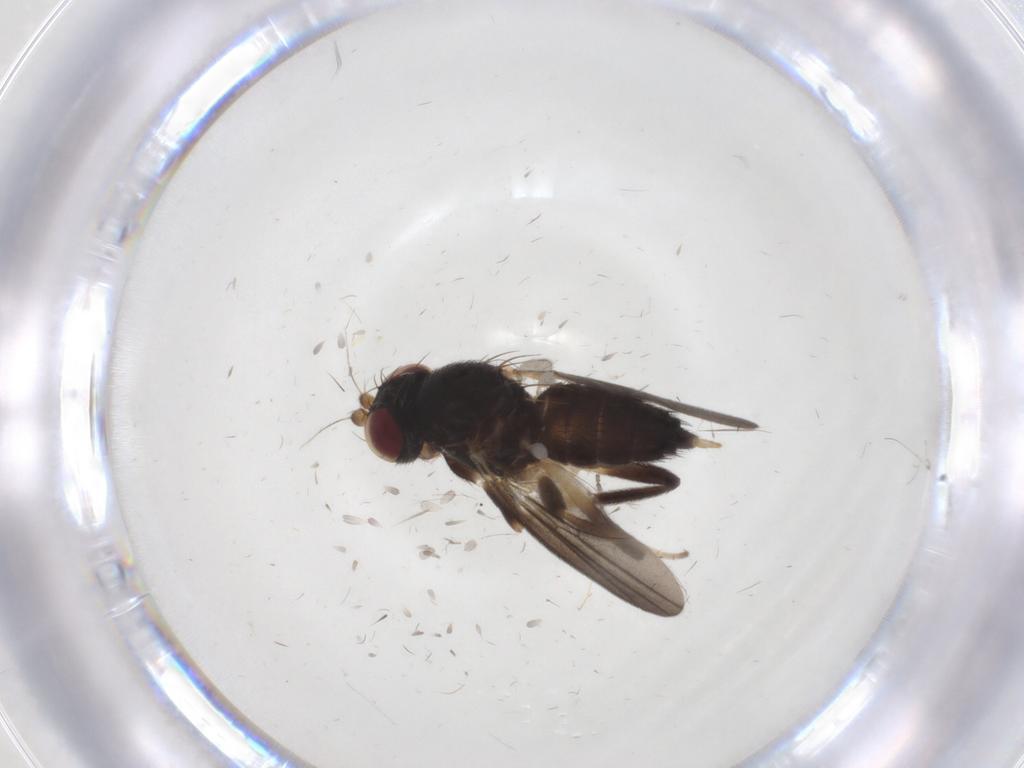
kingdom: Animalia
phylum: Arthropoda
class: Insecta
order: Diptera
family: Clusiidae
